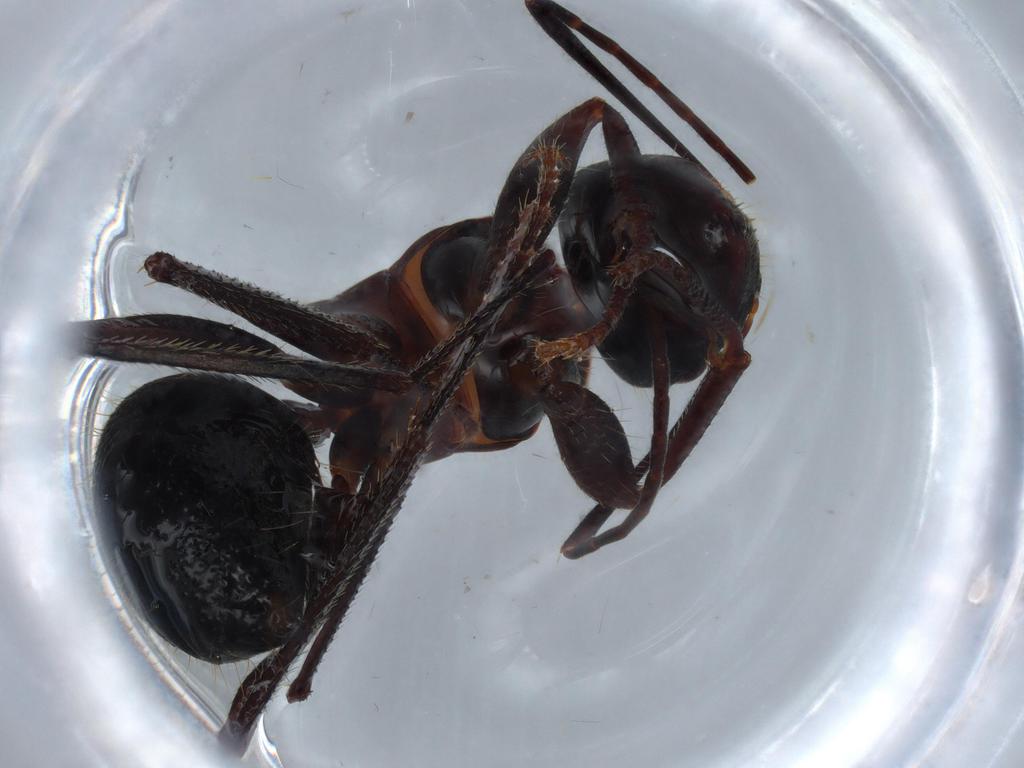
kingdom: Animalia
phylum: Arthropoda
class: Insecta
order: Hymenoptera
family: Formicidae
